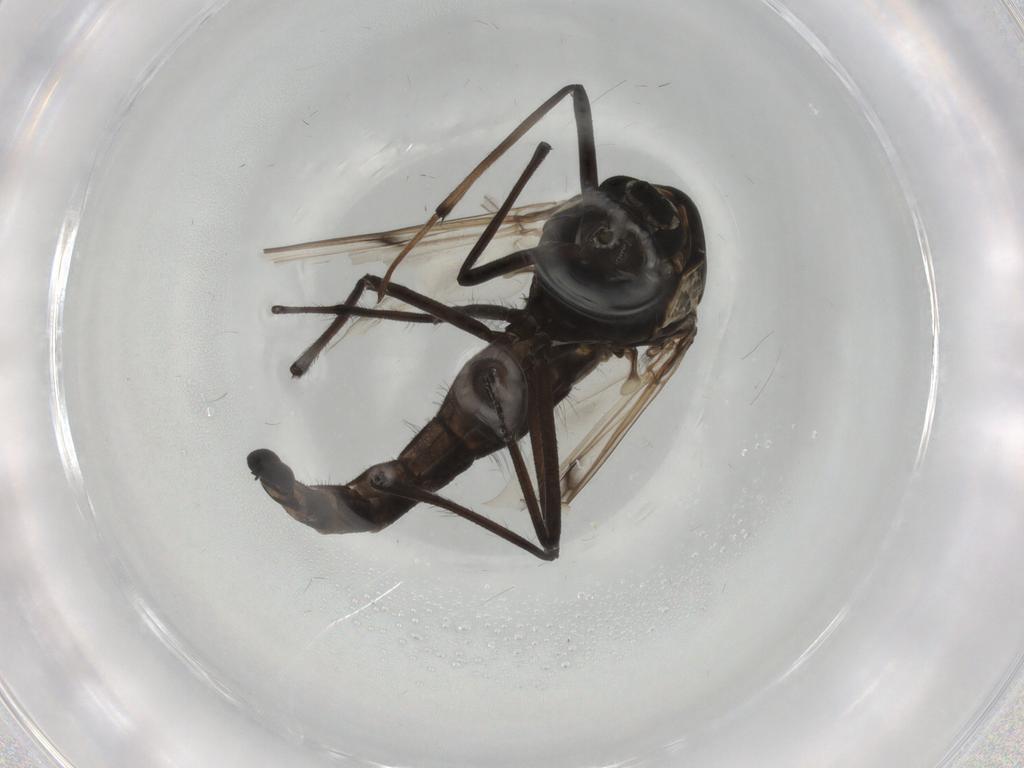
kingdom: Animalia
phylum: Arthropoda
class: Insecta
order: Diptera
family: Chironomidae
